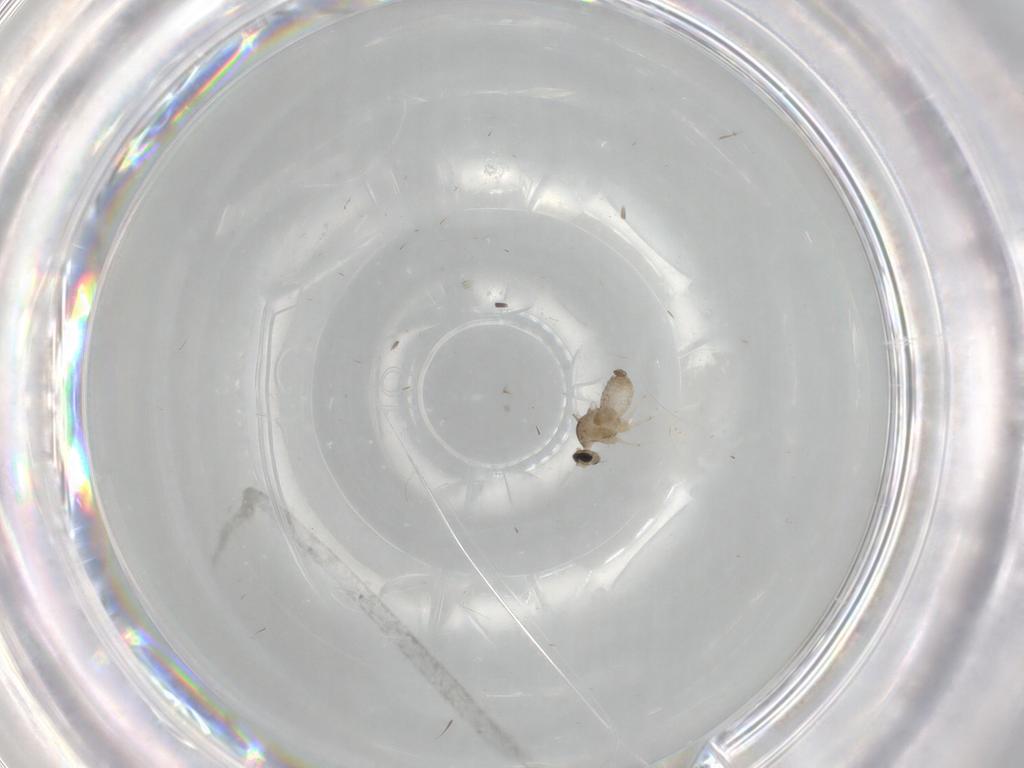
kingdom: Animalia
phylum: Arthropoda
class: Insecta
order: Diptera
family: Cecidomyiidae
